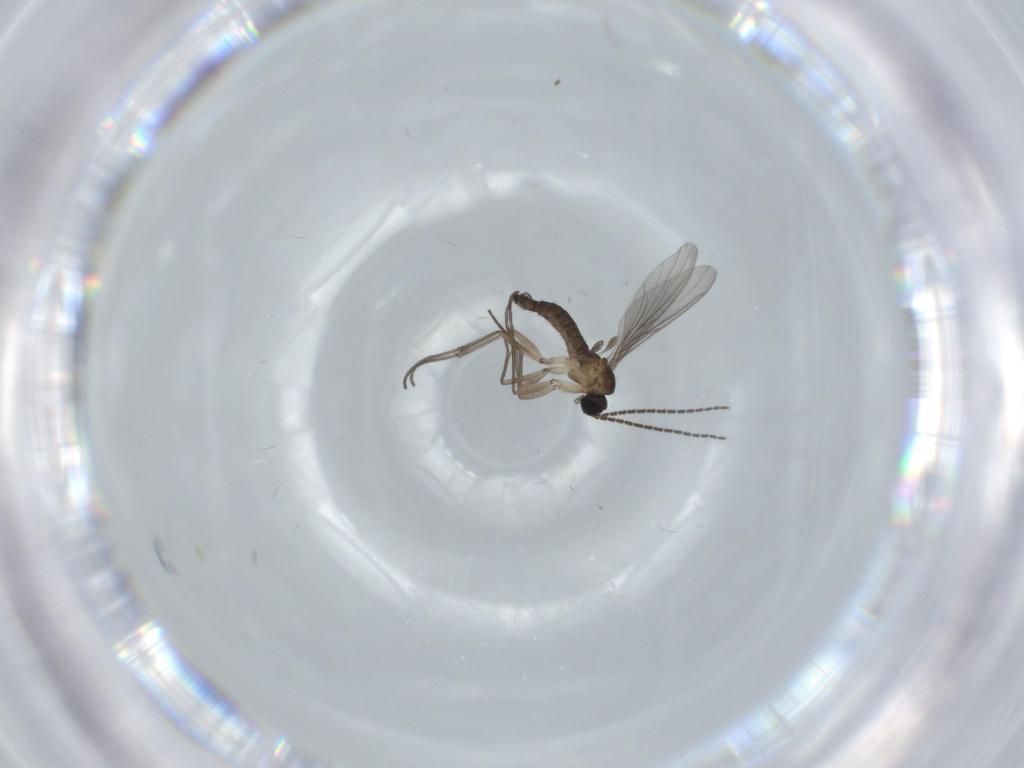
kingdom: Animalia
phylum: Arthropoda
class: Insecta
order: Diptera
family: Sciaridae
